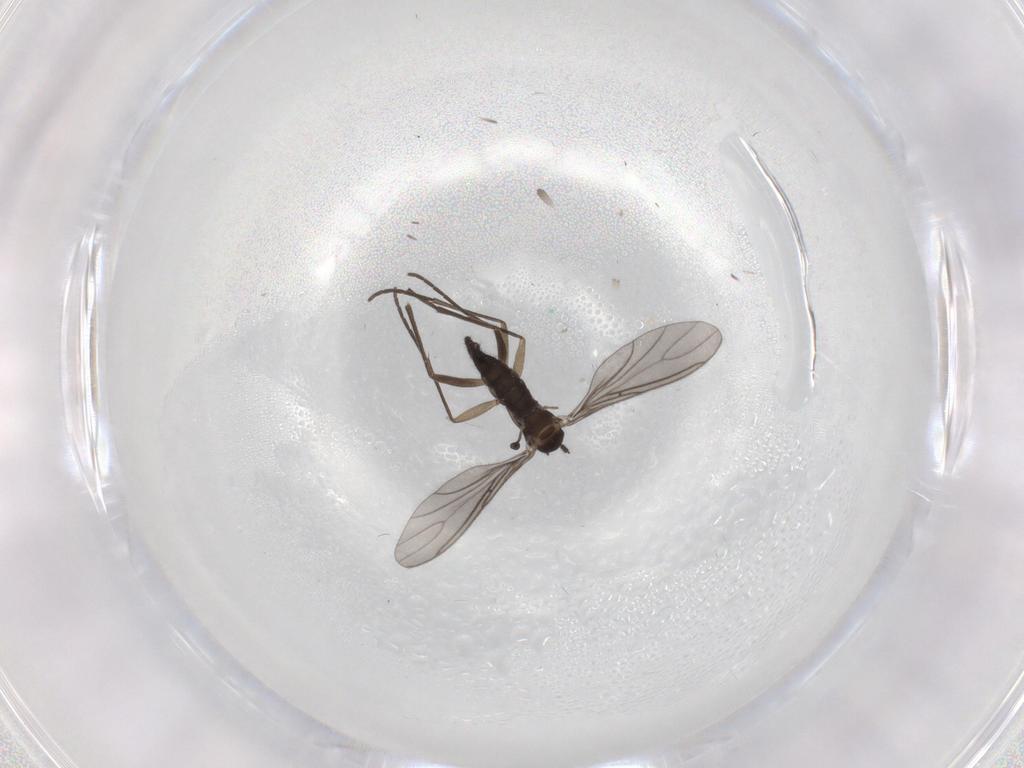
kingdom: Animalia
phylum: Arthropoda
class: Insecta
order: Diptera
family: Sciaridae
